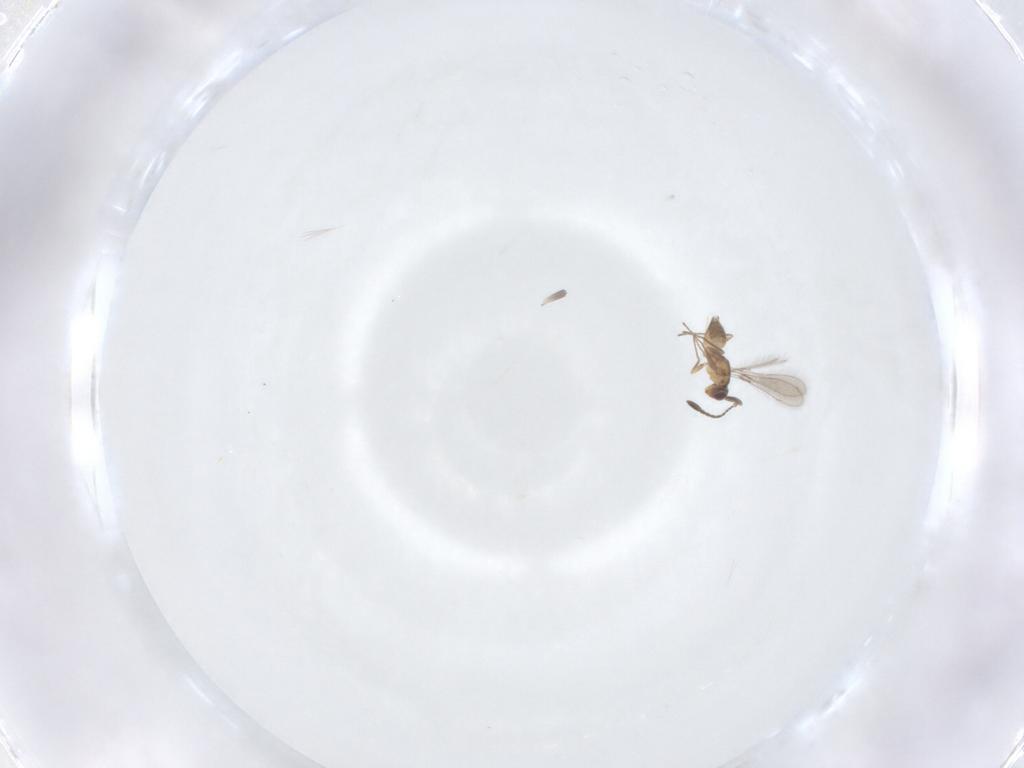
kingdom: Animalia
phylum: Arthropoda
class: Insecta
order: Hymenoptera
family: Mymaridae
